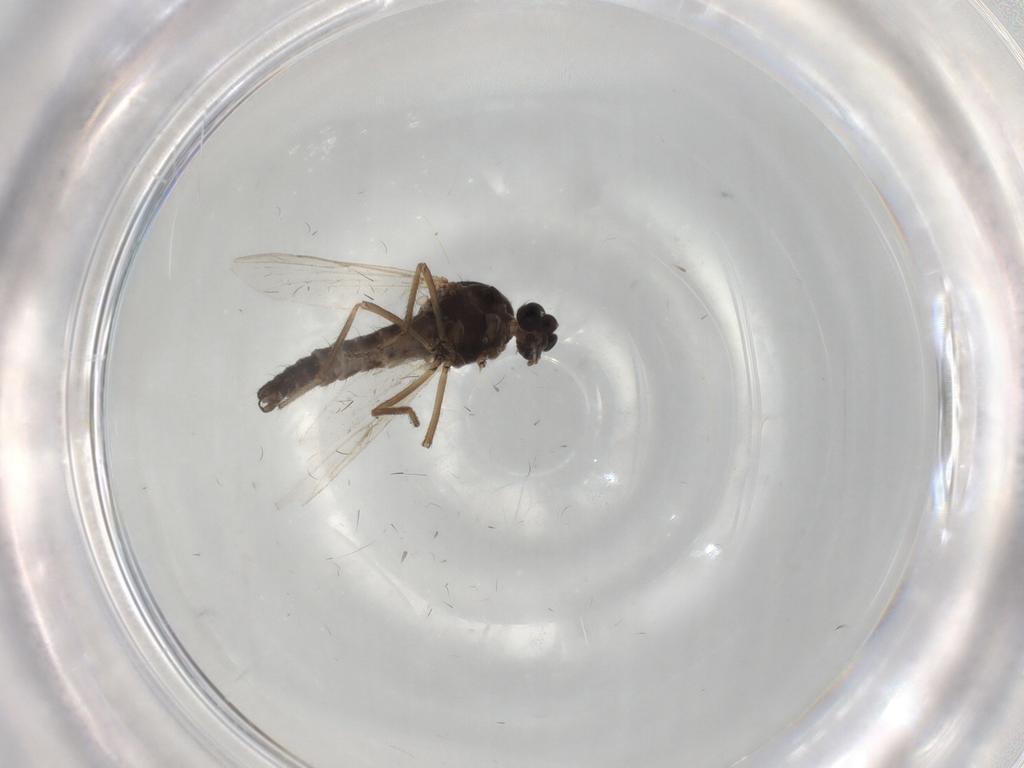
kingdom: Animalia
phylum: Arthropoda
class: Insecta
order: Diptera
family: Ceratopogonidae
